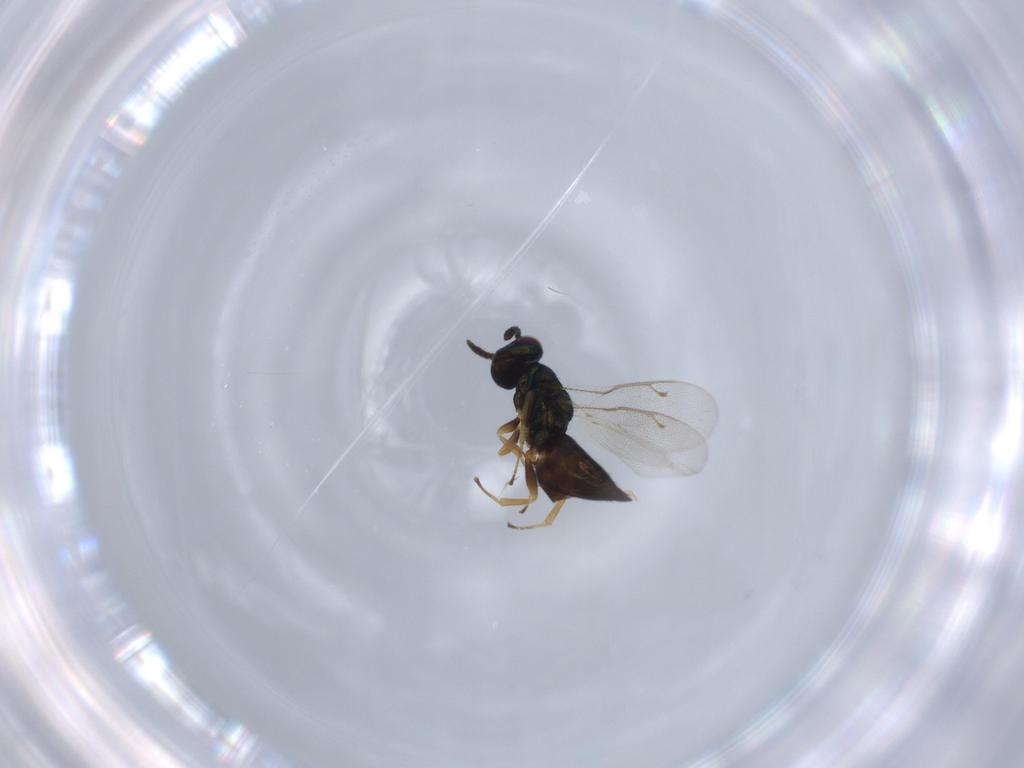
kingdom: Animalia
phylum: Arthropoda
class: Insecta
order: Hymenoptera
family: Pteromalidae
